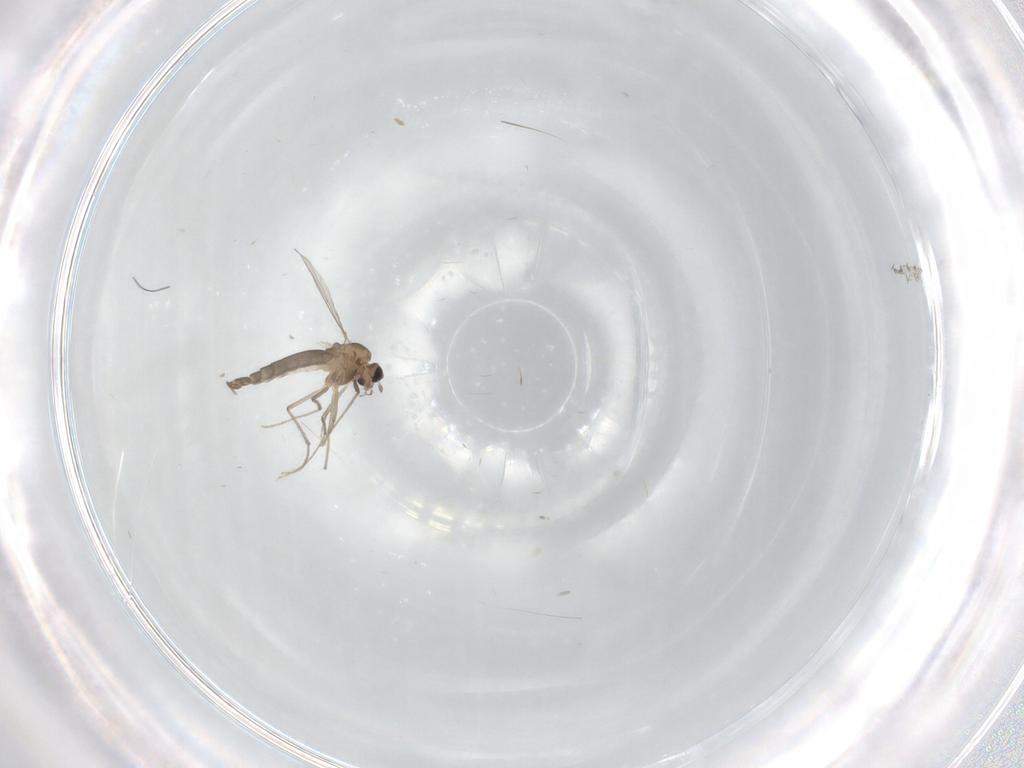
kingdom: Animalia
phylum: Arthropoda
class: Insecta
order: Diptera
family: Chironomidae
